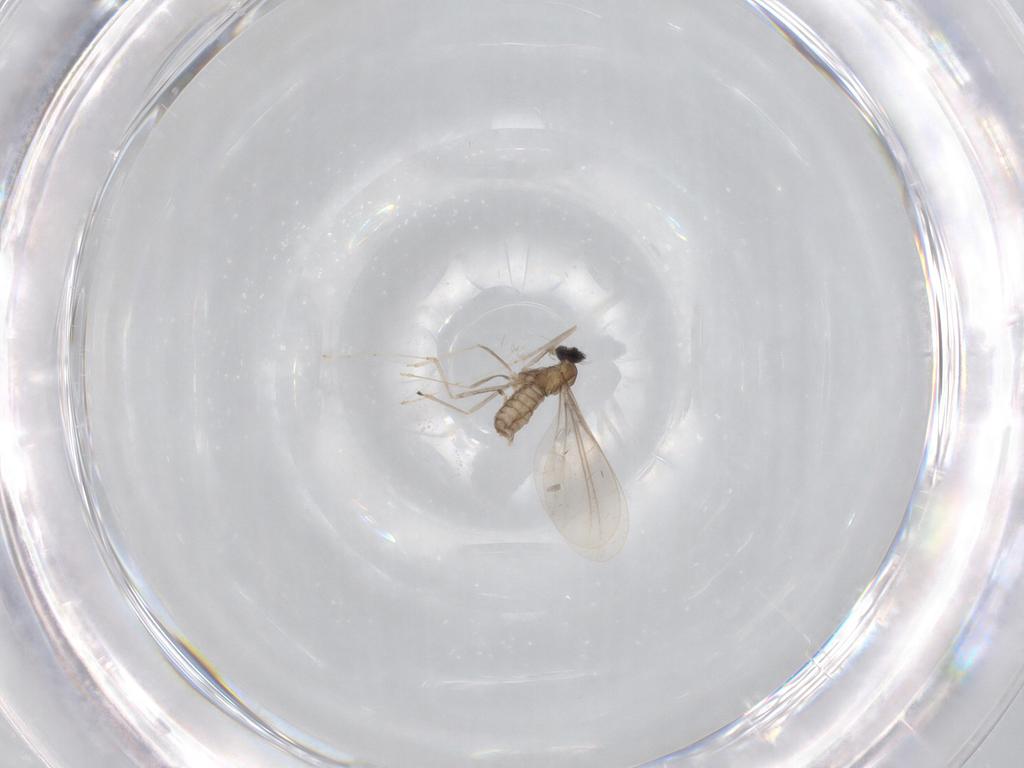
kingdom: Animalia
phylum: Arthropoda
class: Insecta
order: Diptera
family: Cecidomyiidae
